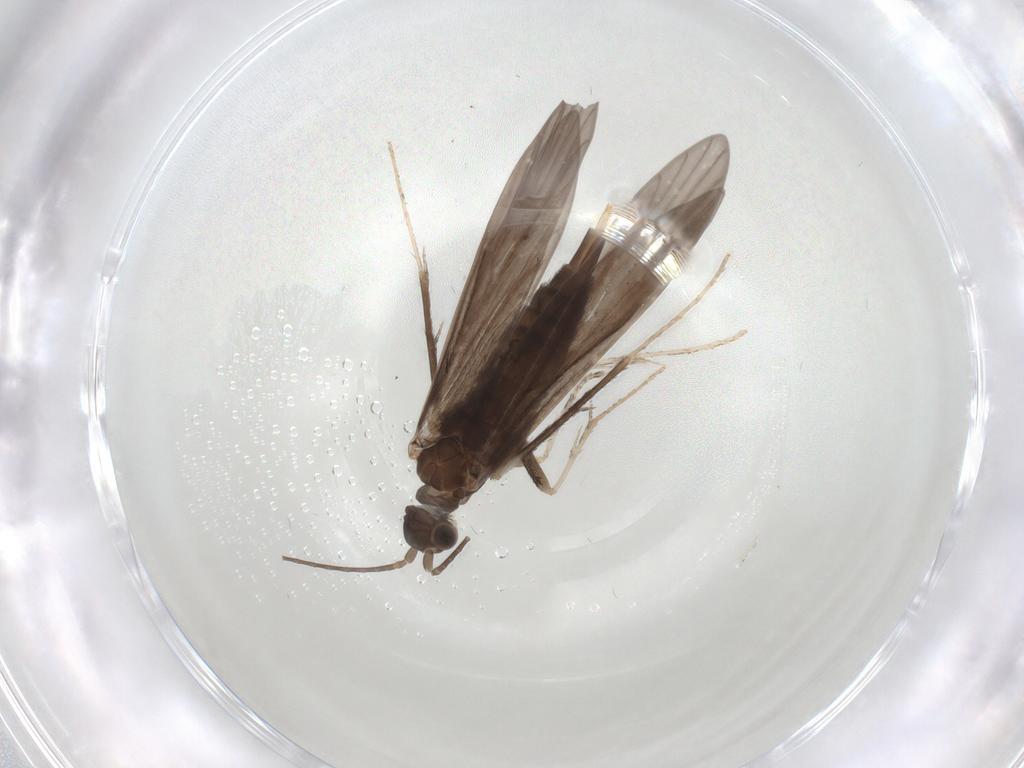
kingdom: Animalia
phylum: Arthropoda
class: Insecta
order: Trichoptera
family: Xiphocentronidae
